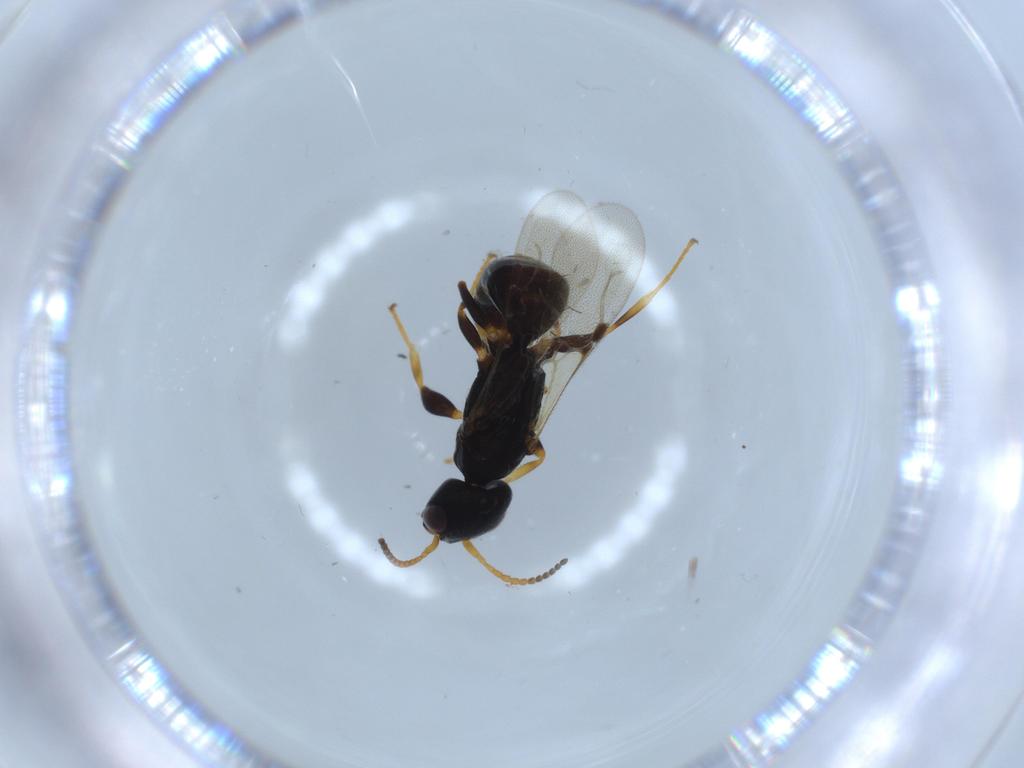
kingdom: Animalia
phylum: Arthropoda
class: Insecta
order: Hymenoptera
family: Bethylidae
